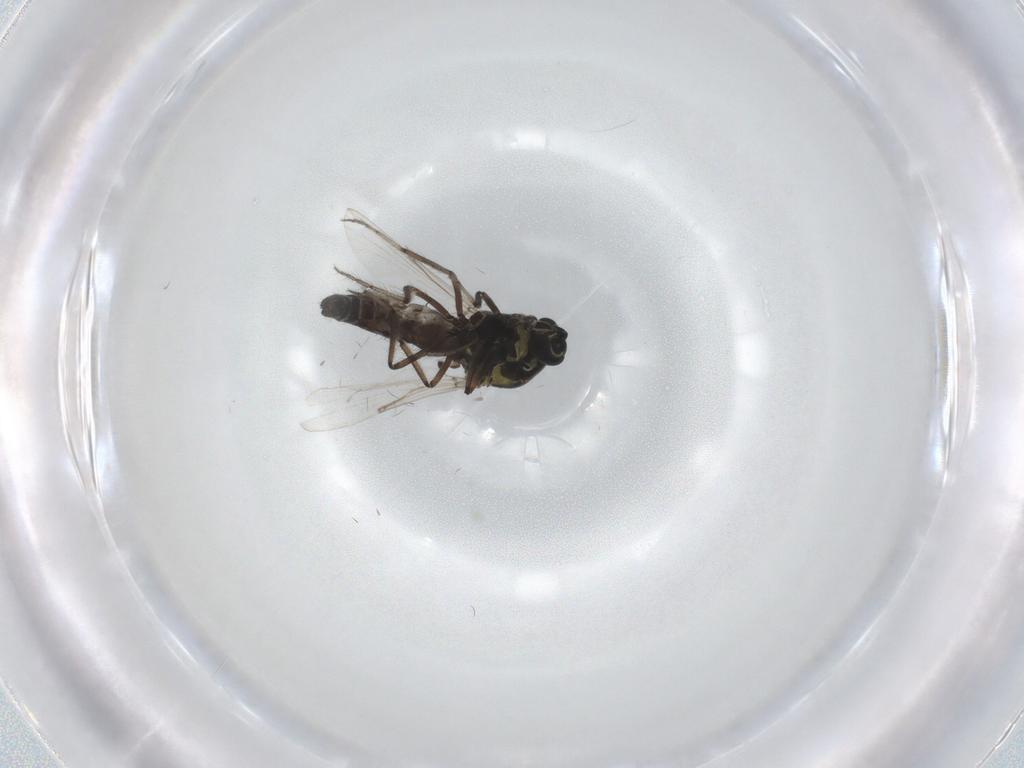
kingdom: Animalia
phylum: Arthropoda
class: Insecta
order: Diptera
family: Ceratopogonidae
